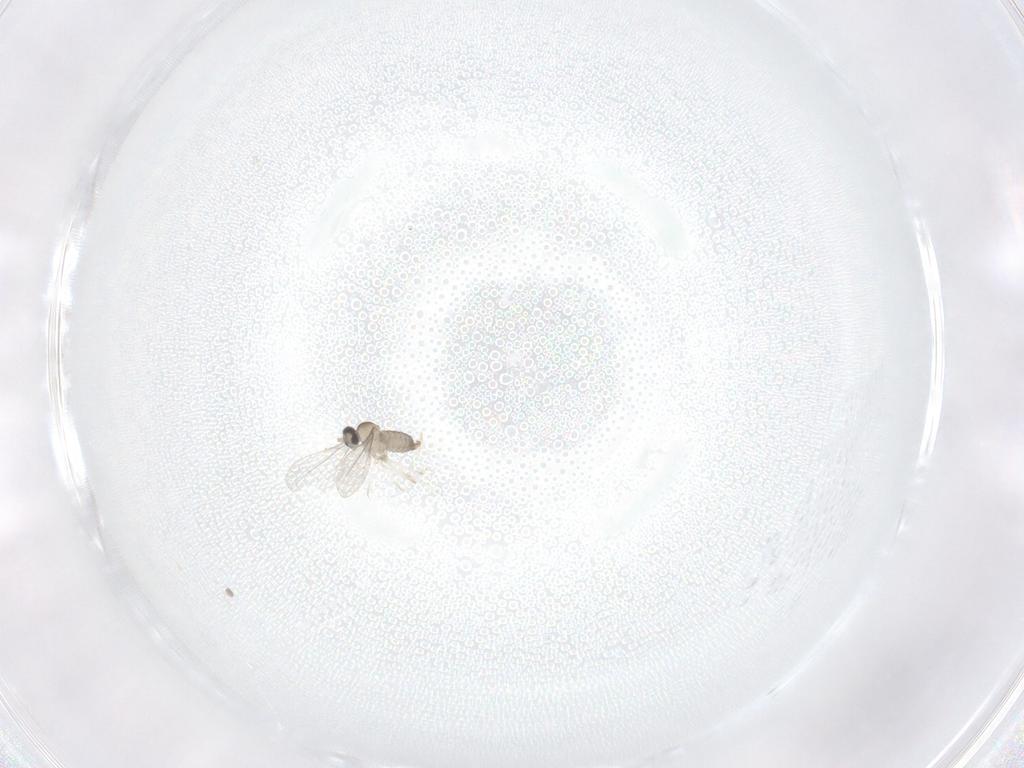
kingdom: Animalia
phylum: Arthropoda
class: Insecta
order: Diptera
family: Cecidomyiidae
